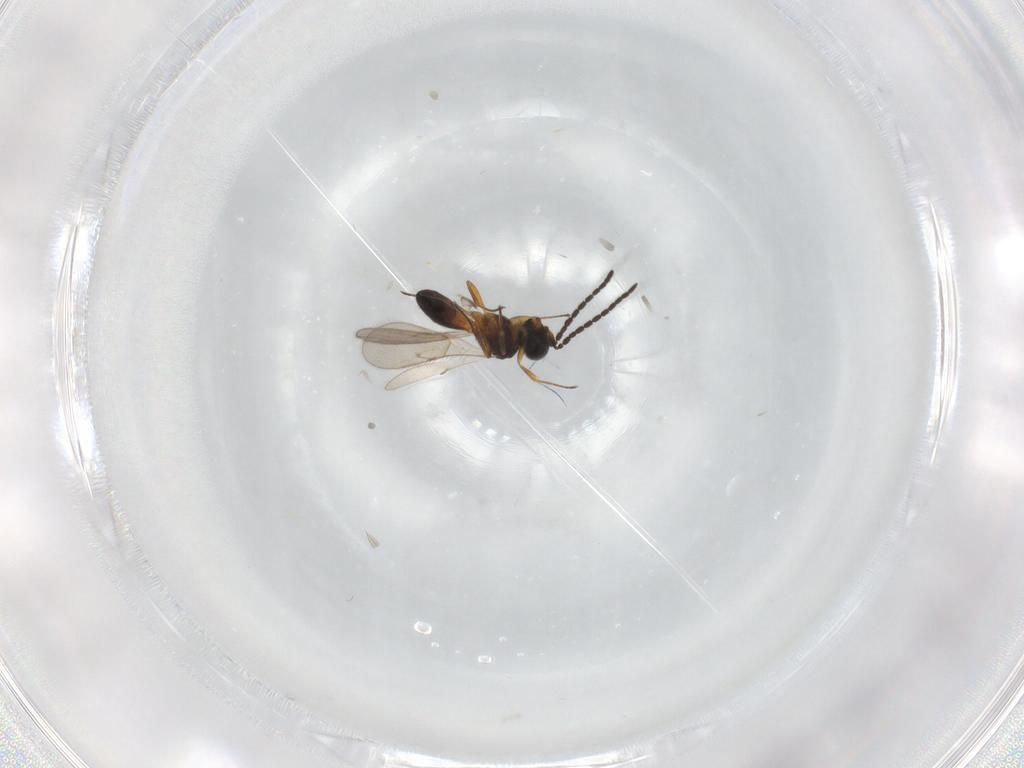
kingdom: Animalia
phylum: Arthropoda
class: Insecta
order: Hymenoptera
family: Scelionidae
